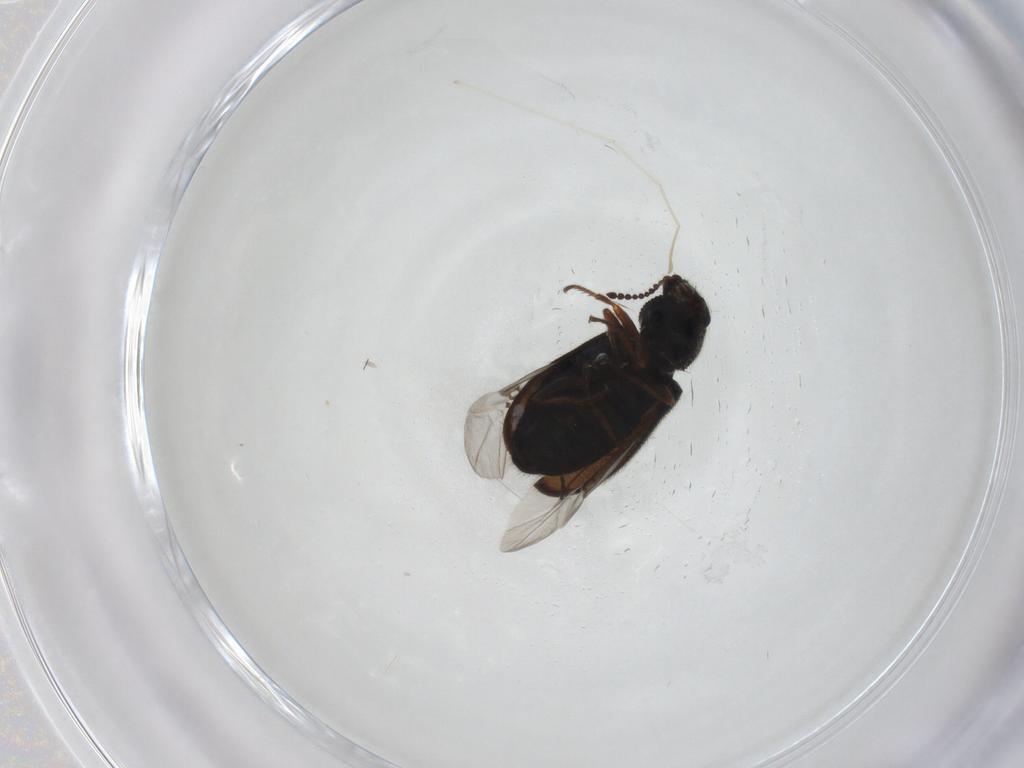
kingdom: Animalia
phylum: Arthropoda
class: Insecta
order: Coleoptera
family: Melyridae
